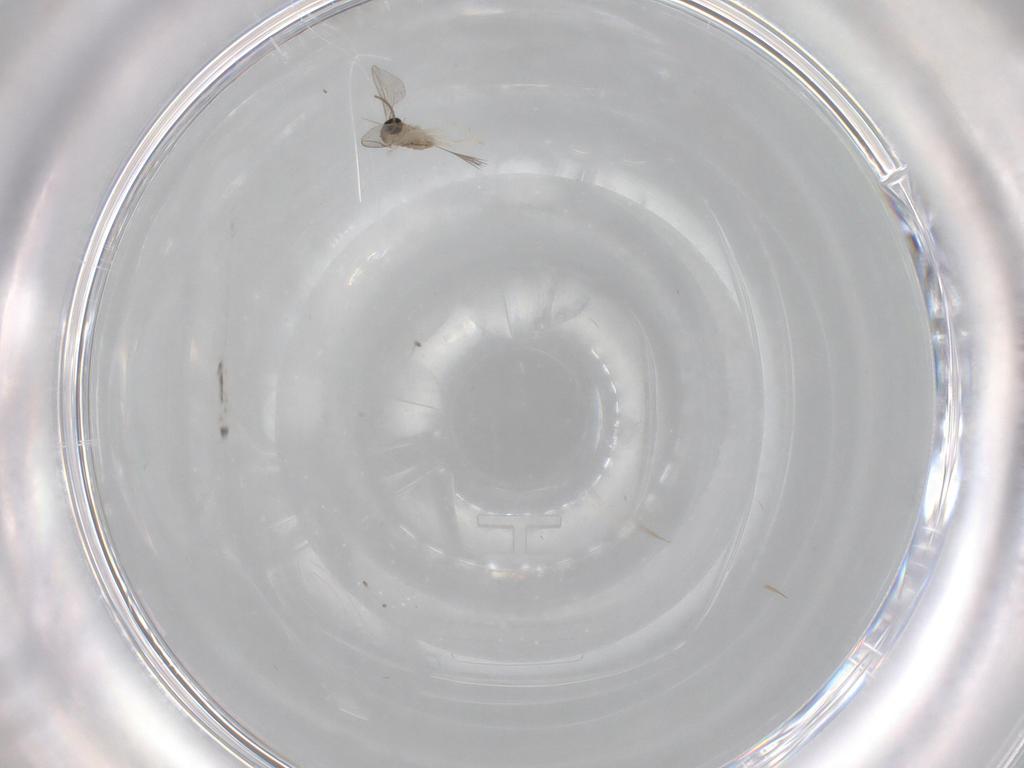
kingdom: Animalia
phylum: Arthropoda
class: Insecta
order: Diptera
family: Cecidomyiidae
